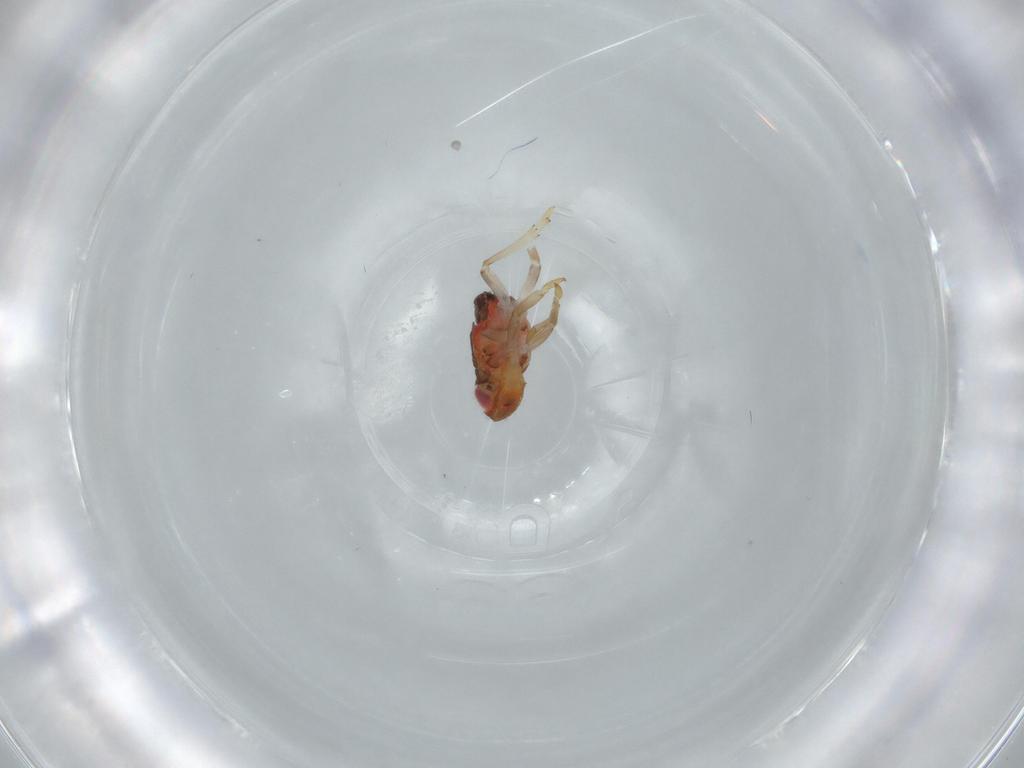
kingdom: Animalia
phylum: Arthropoda
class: Insecta
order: Hemiptera
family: Issidae
